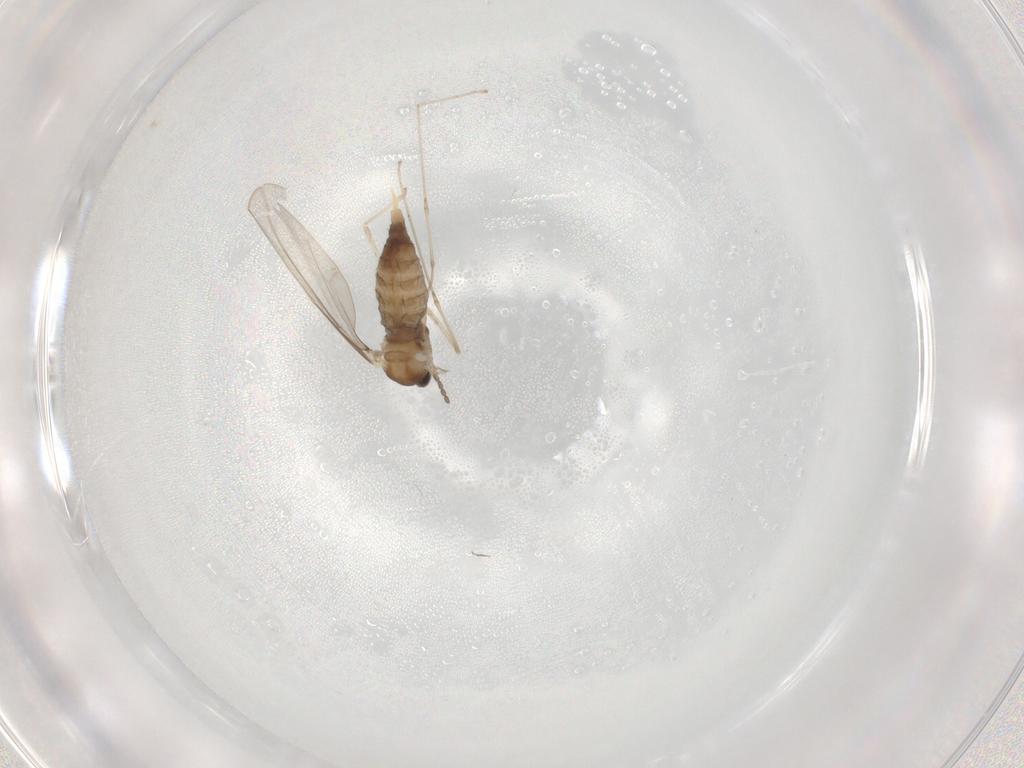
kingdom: Animalia
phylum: Arthropoda
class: Insecta
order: Diptera
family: Cecidomyiidae
